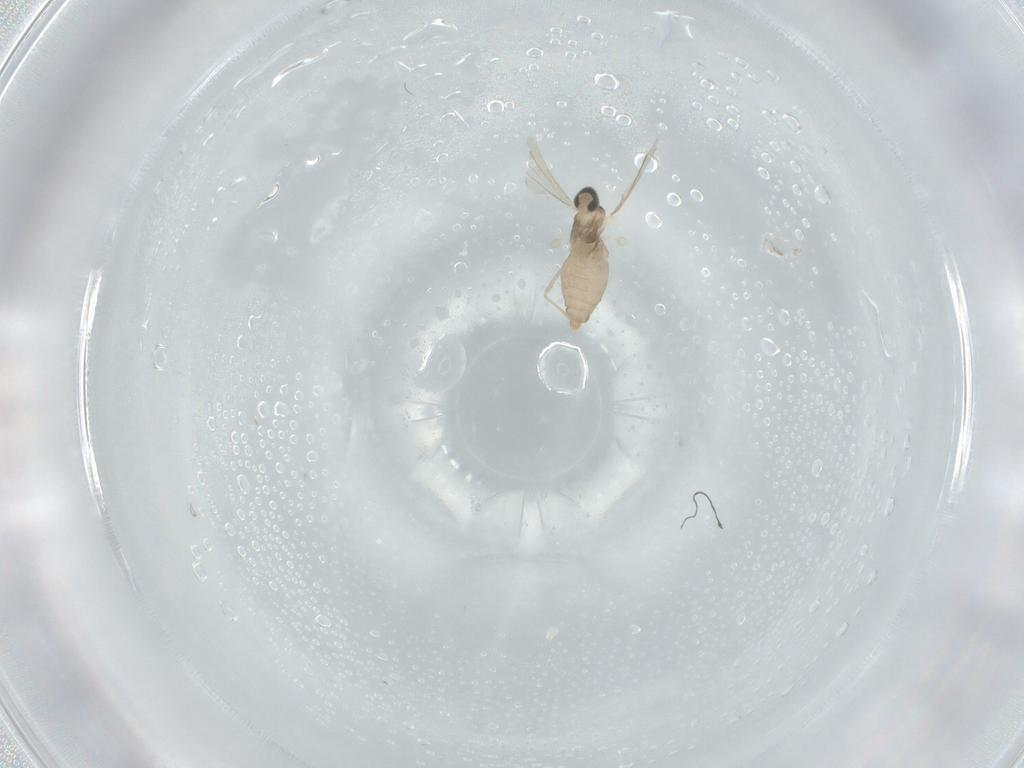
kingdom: Animalia
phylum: Arthropoda
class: Insecta
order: Diptera
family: Cecidomyiidae
